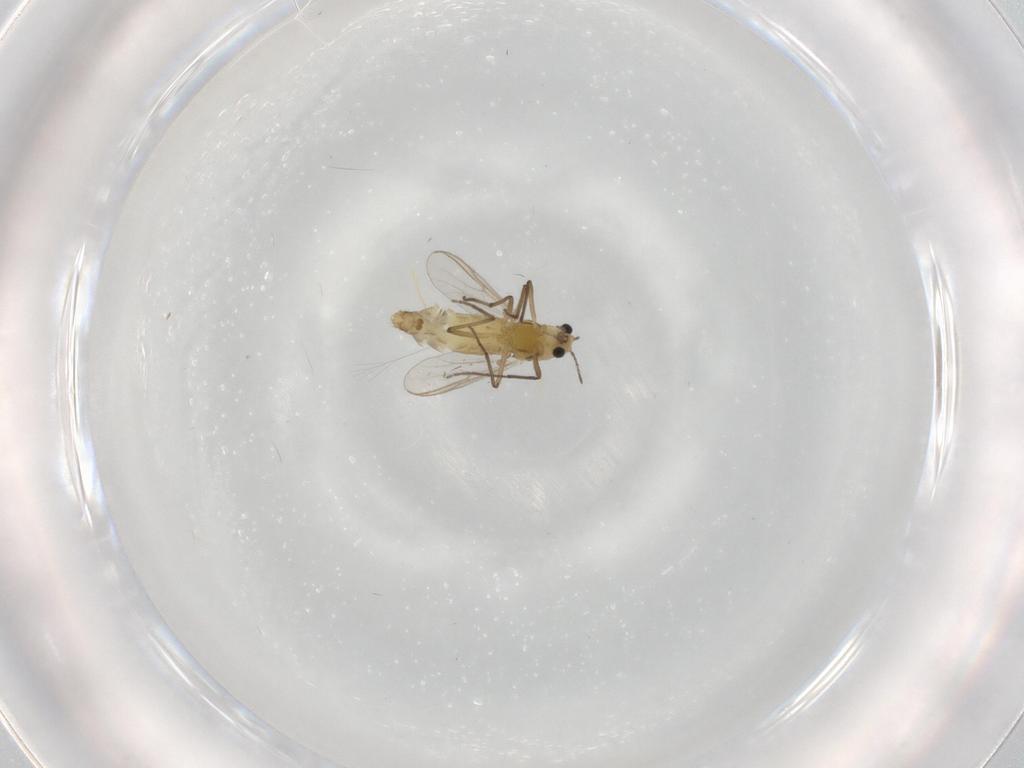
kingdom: Animalia
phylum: Arthropoda
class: Insecta
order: Diptera
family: Chironomidae
